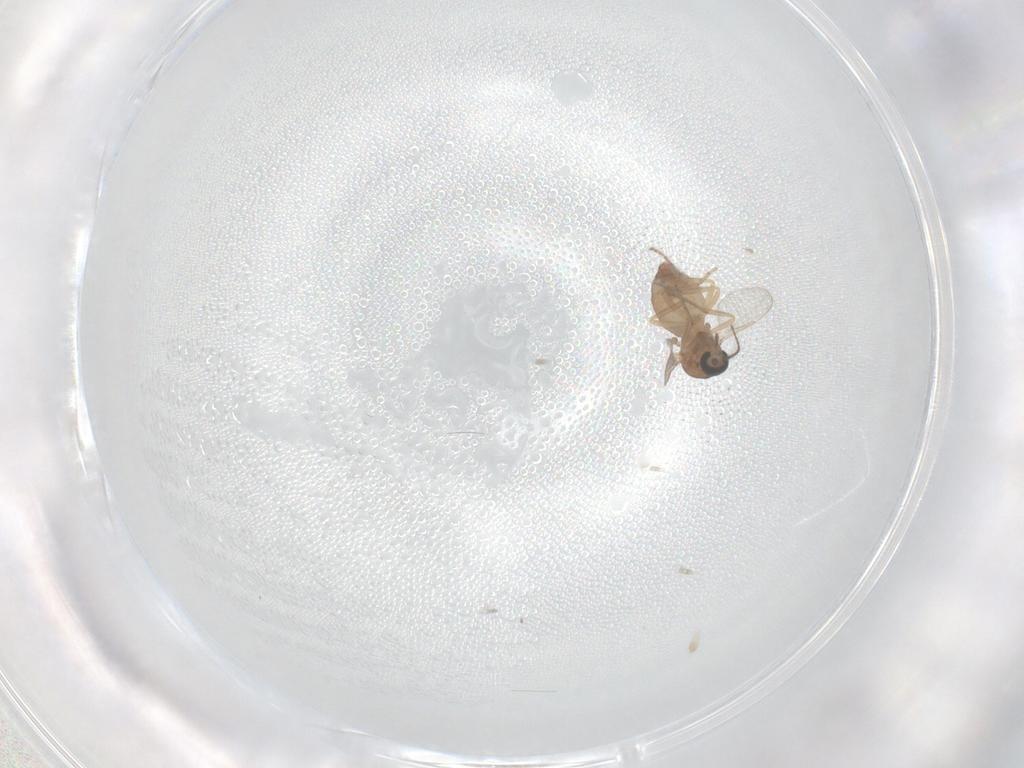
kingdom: Animalia
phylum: Arthropoda
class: Insecta
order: Diptera
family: Ceratopogonidae
